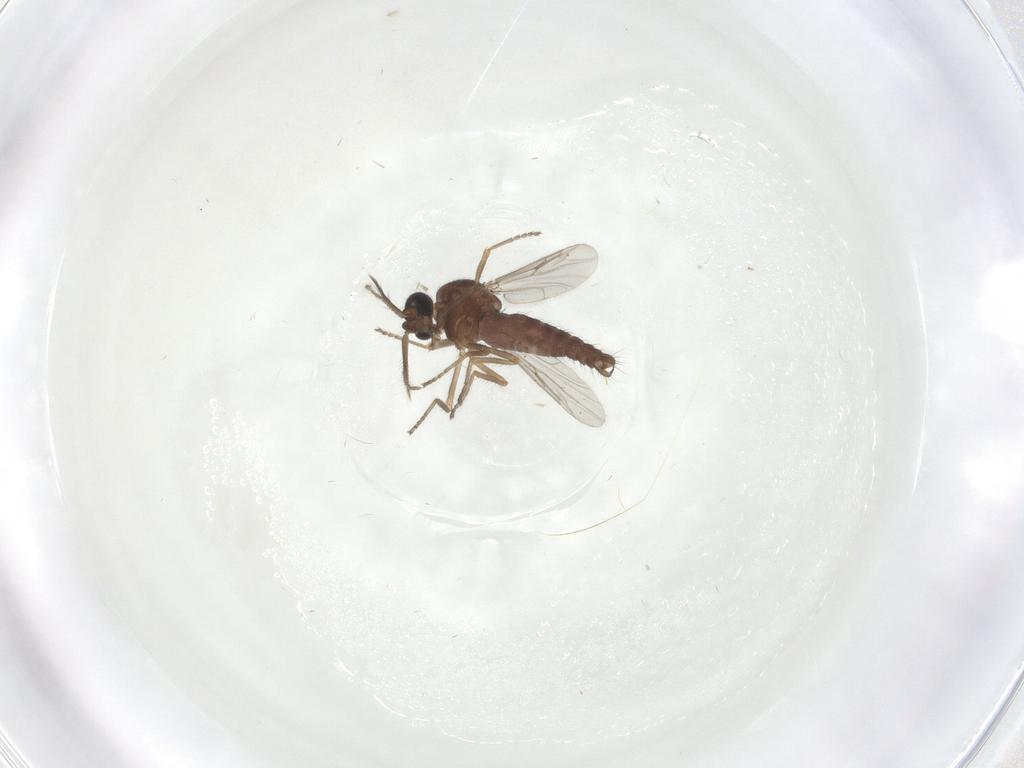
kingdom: Animalia
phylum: Arthropoda
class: Insecta
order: Diptera
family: Ceratopogonidae
